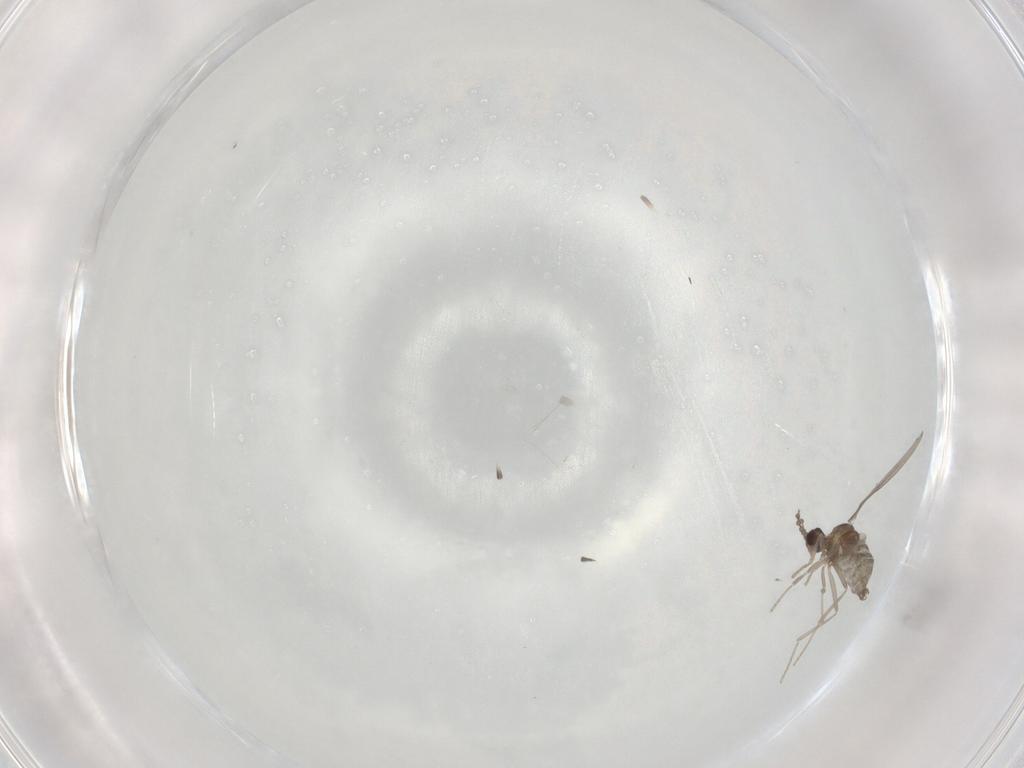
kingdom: Animalia
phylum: Arthropoda
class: Insecta
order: Diptera
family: Cecidomyiidae
